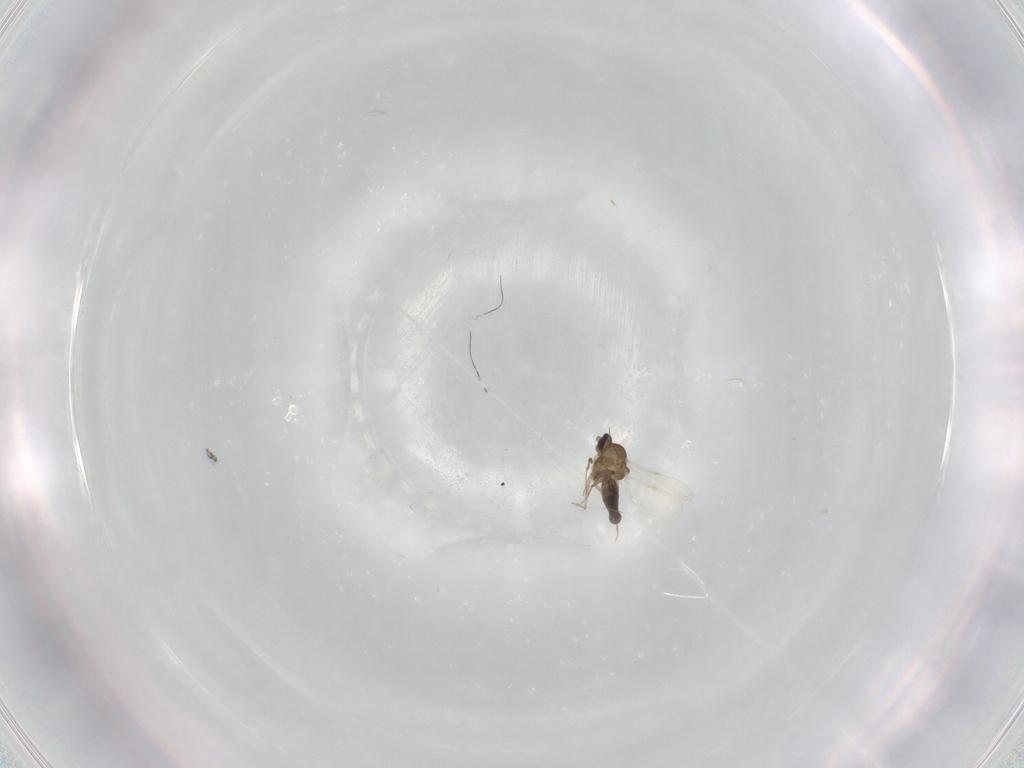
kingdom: Animalia
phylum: Arthropoda
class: Insecta
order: Diptera
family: Ceratopogonidae
